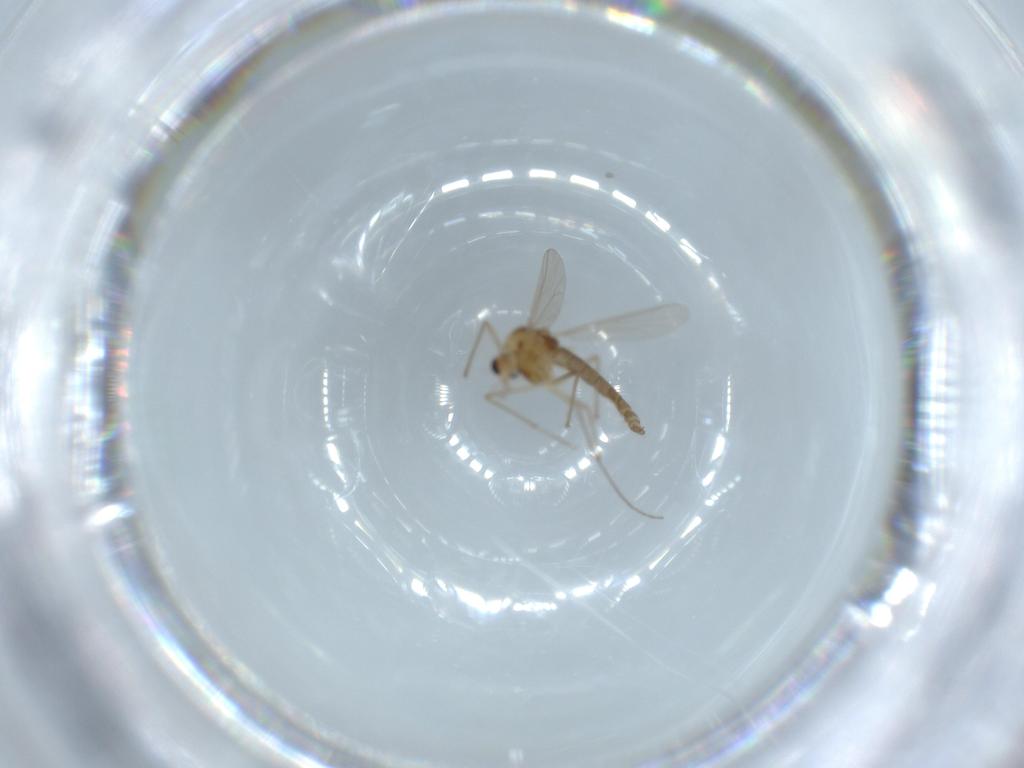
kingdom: Animalia
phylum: Arthropoda
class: Insecta
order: Diptera
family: Chironomidae
